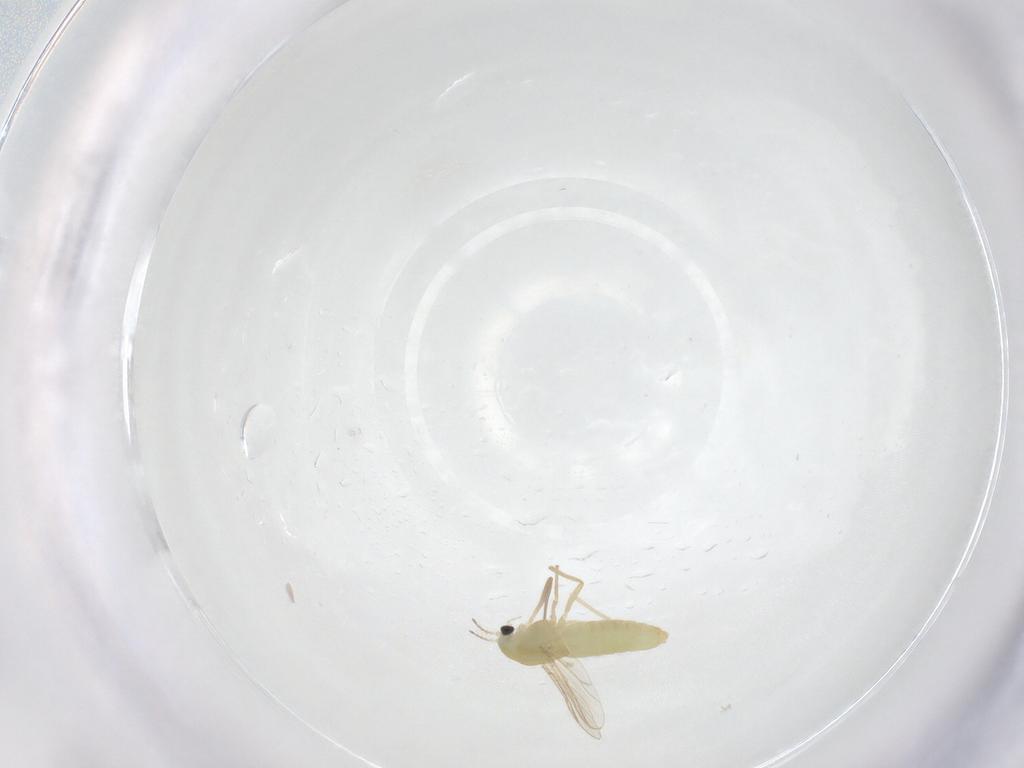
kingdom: Animalia
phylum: Arthropoda
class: Insecta
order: Diptera
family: Chironomidae
